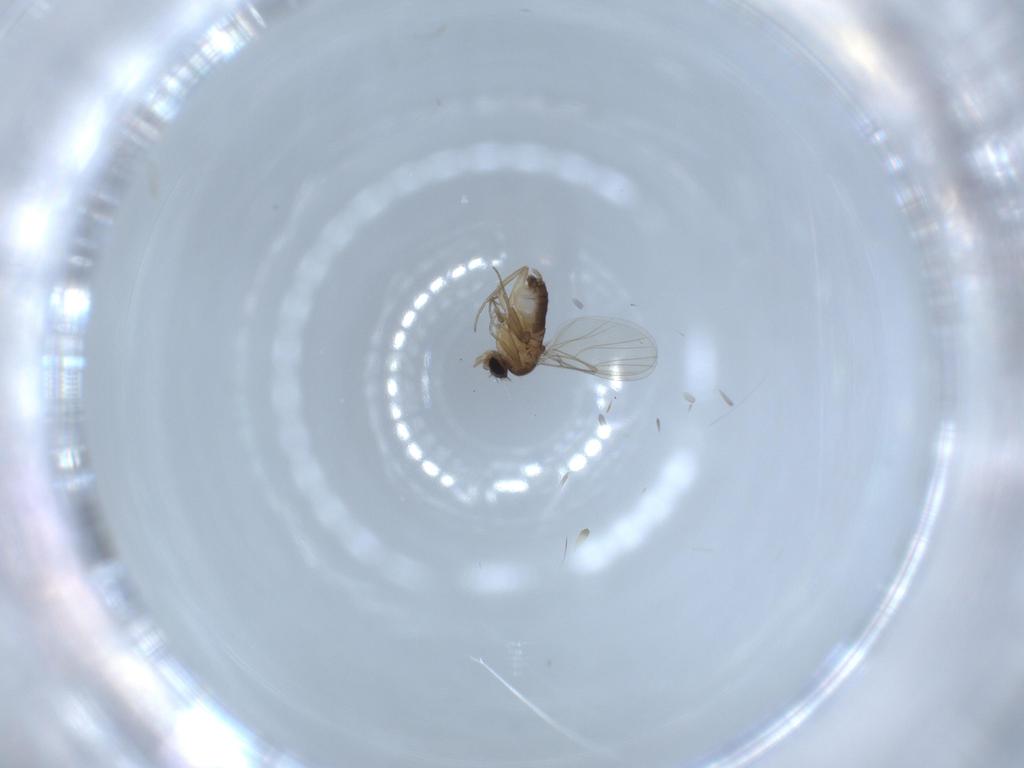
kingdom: Animalia
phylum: Arthropoda
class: Insecta
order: Diptera
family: Phoridae
